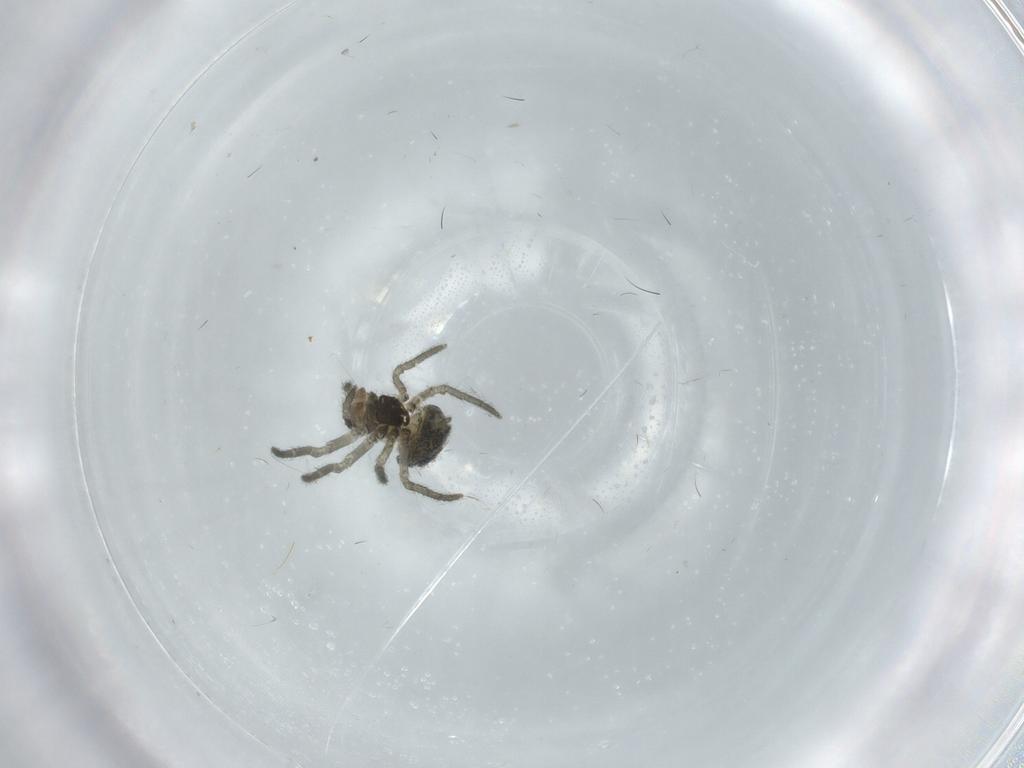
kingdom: Animalia
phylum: Arthropoda
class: Arachnida
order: Araneae
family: Araneidae
